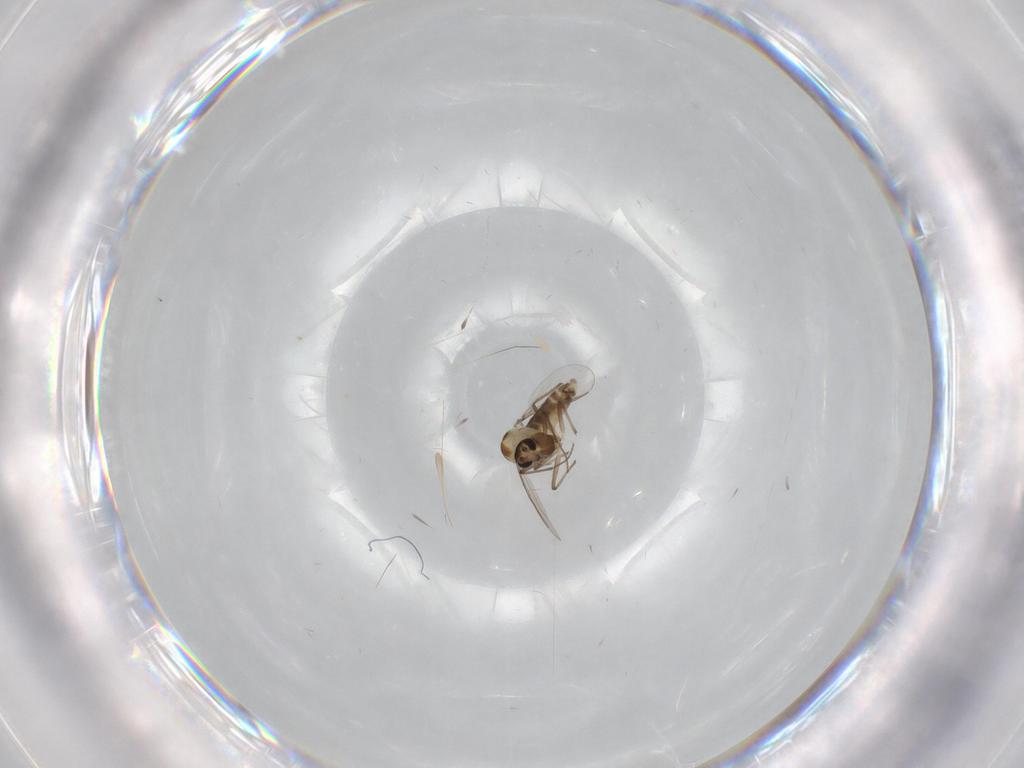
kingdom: Animalia
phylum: Arthropoda
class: Insecta
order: Diptera
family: Chironomidae
